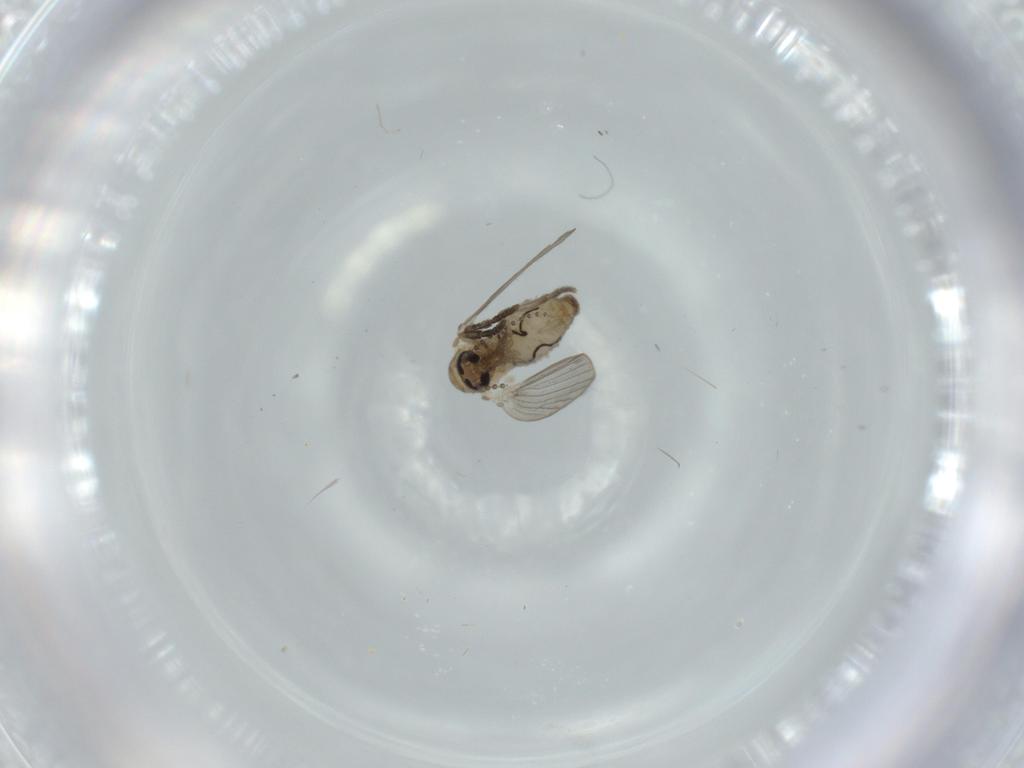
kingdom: Animalia
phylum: Arthropoda
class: Insecta
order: Diptera
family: Psychodidae
